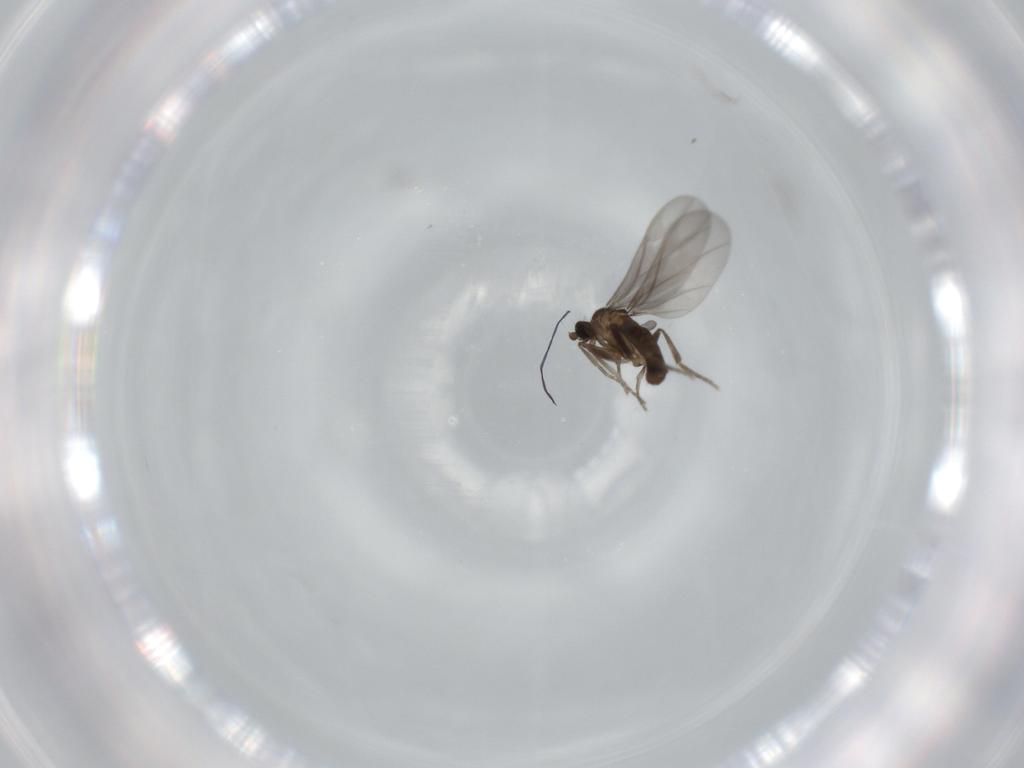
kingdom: Animalia
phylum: Arthropoda
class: Insecta
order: Diptera
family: Phoridae
